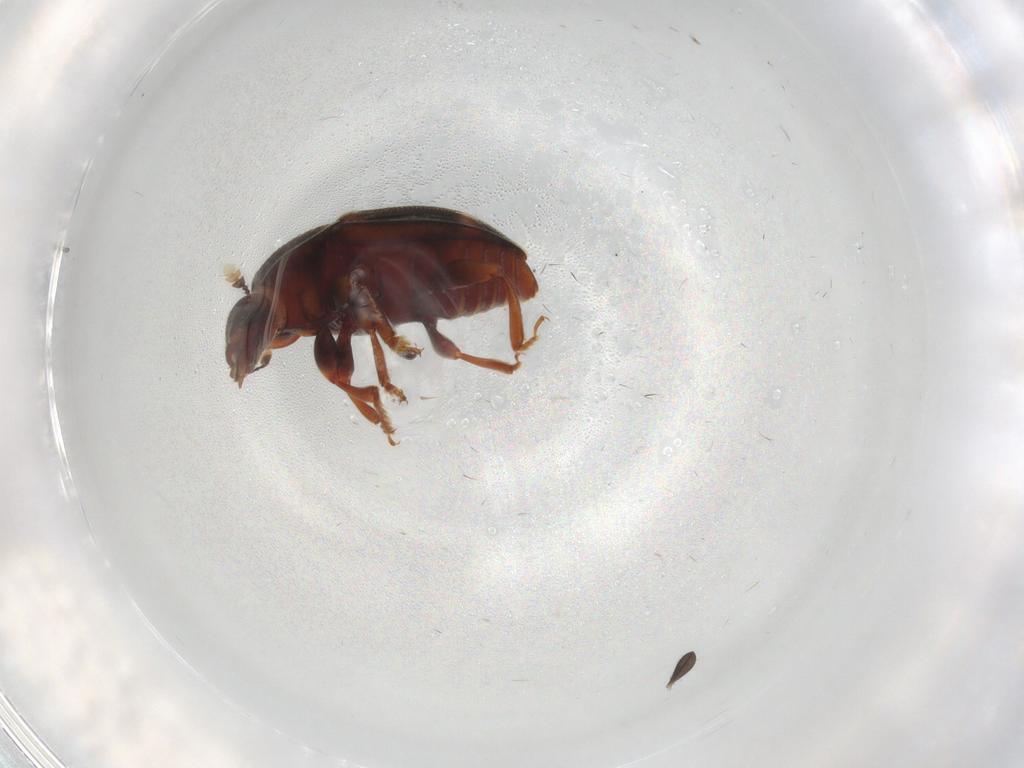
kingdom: Animalia
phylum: Arthropoda
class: Insecta
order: Coleoptera
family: Nitidulidae
